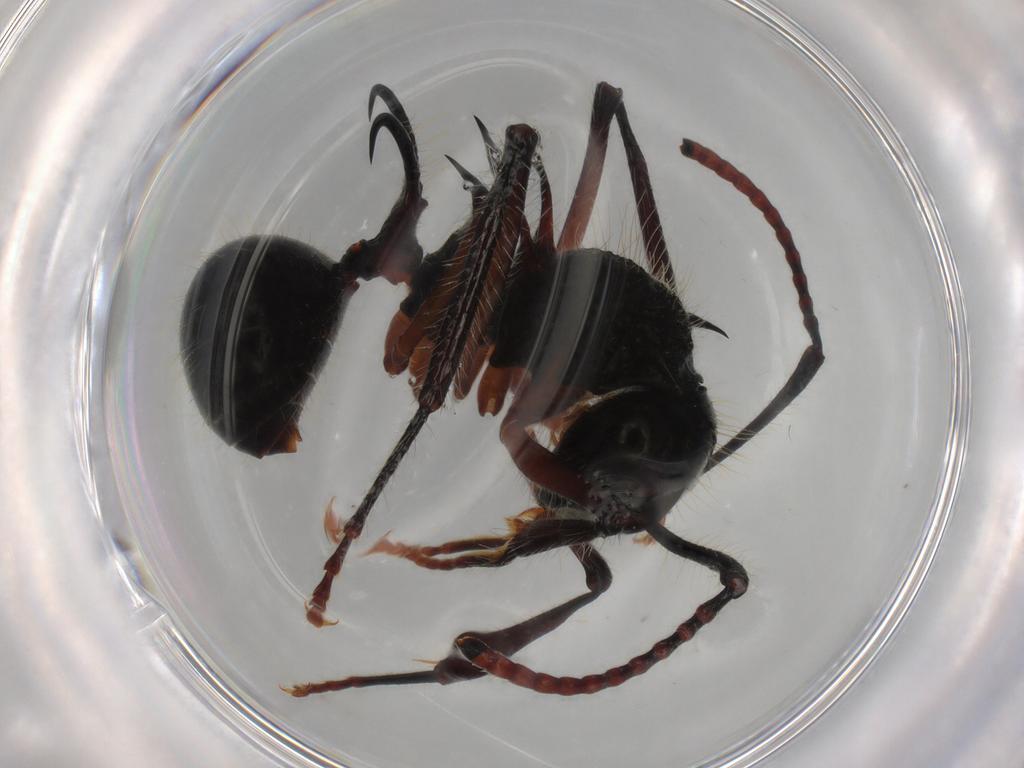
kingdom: Animalia
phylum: Arthropoda
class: Insecta
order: Hymenoptera
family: Formicidae
